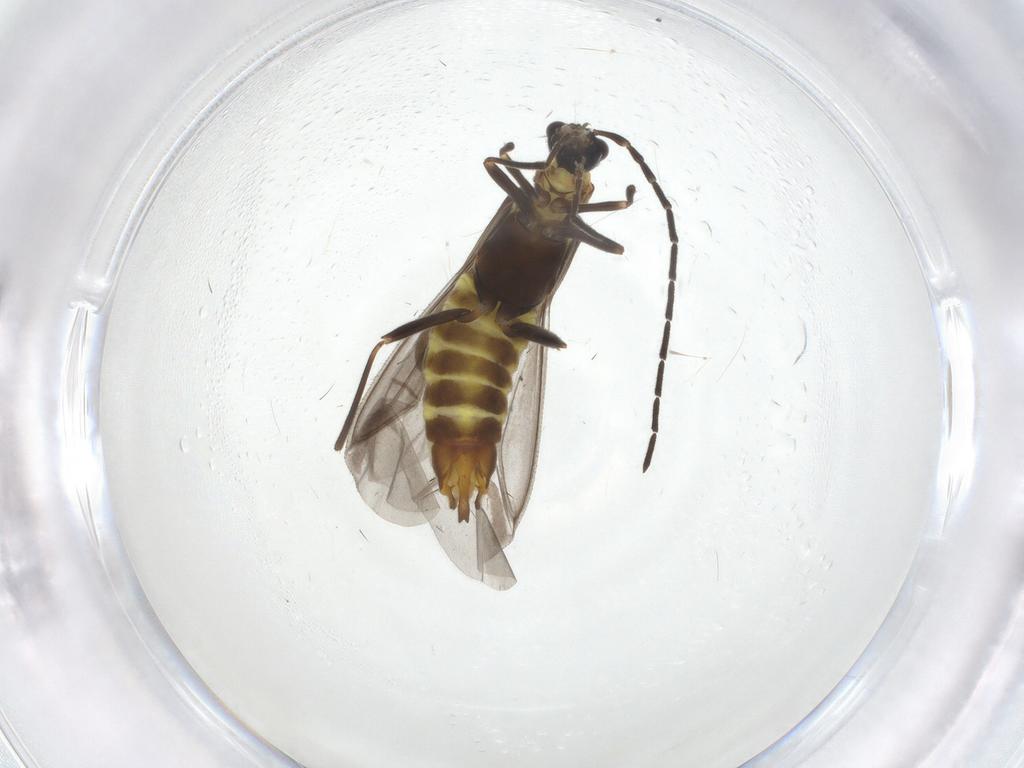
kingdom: Animalia
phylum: Arthropoda
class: Insecta
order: Coleoptera
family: Cantharidae
